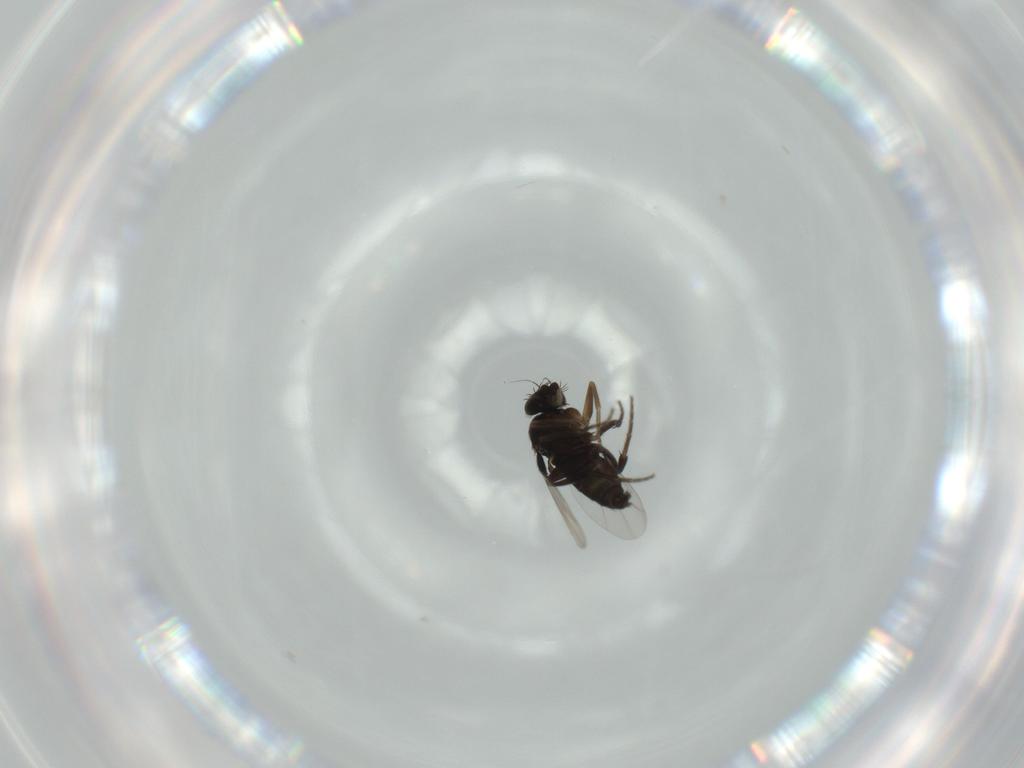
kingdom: Animalia
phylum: Arthropoda
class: Insecta
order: Diptera
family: Phoridae
